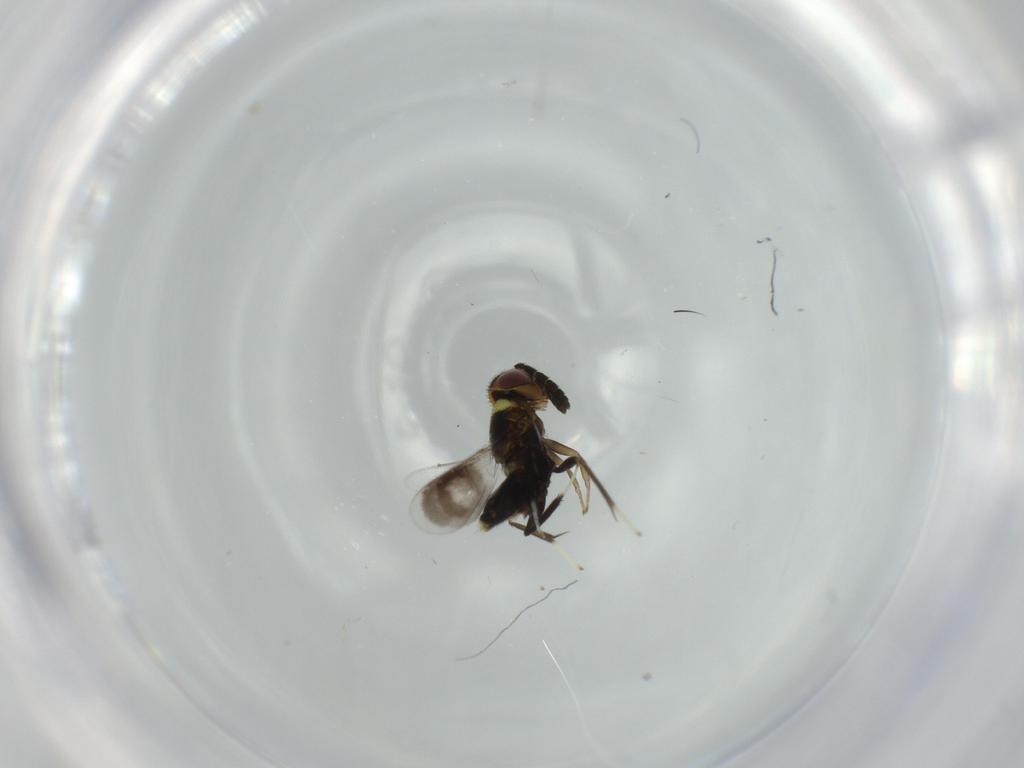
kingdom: Animalia
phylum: Arthropoda
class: Insecta
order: Hymenoptera
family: Aphelinidae
